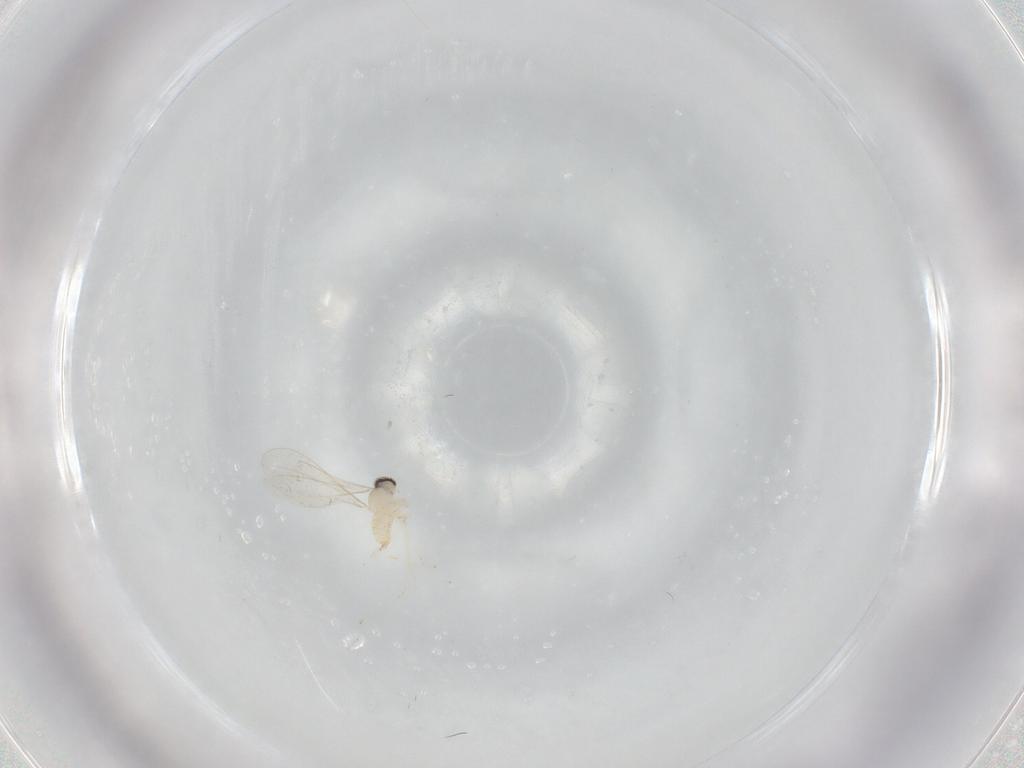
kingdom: Animalia
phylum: Arthropoda
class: Insecta
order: Diptera
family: Cecidomyiidae
